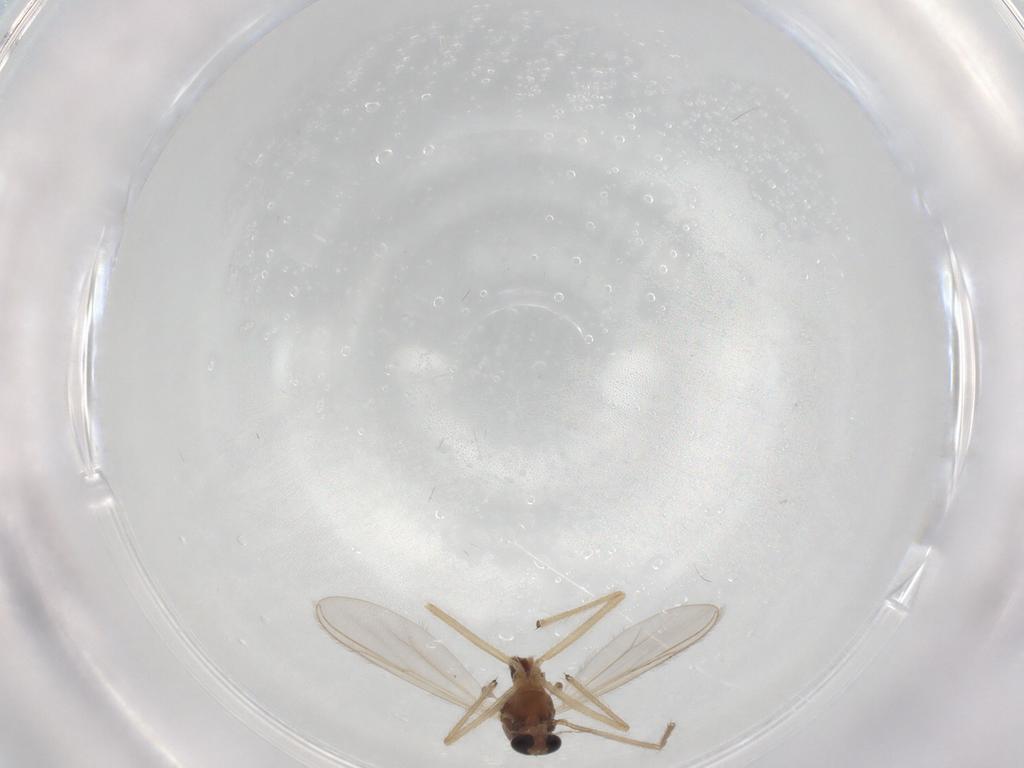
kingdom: Animalia
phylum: Arthropoda
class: Insecta
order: Diptera
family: Chironomidae
